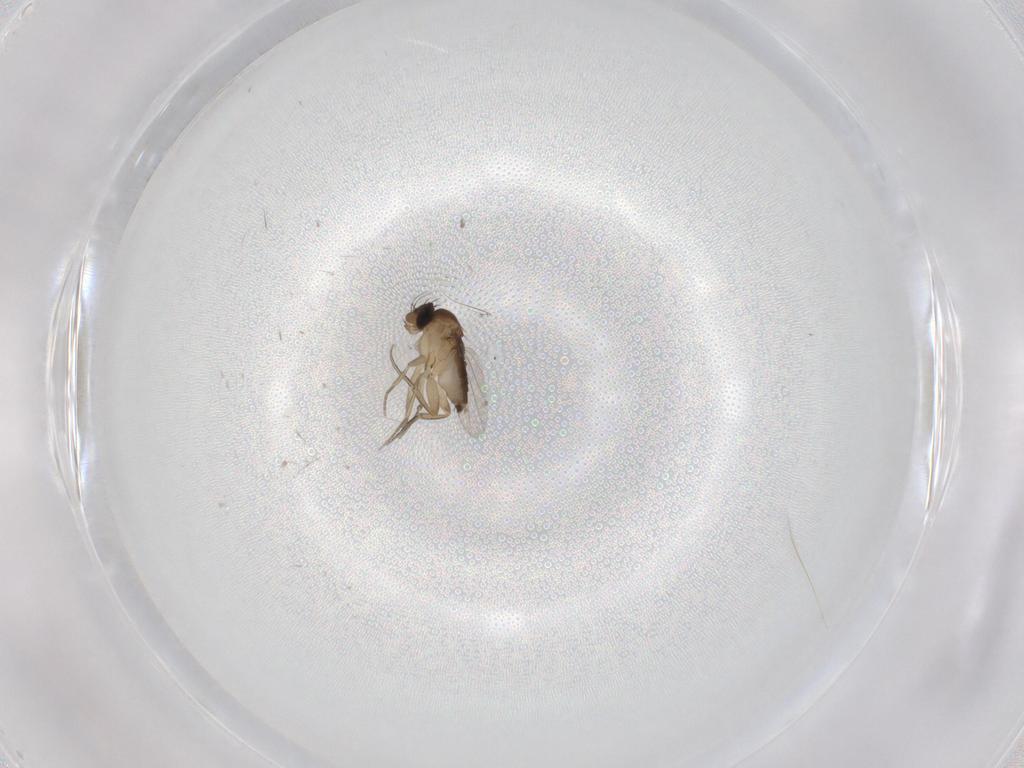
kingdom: Animalia
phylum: Arthropoda
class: Insecta
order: Diptera
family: Phoridae
